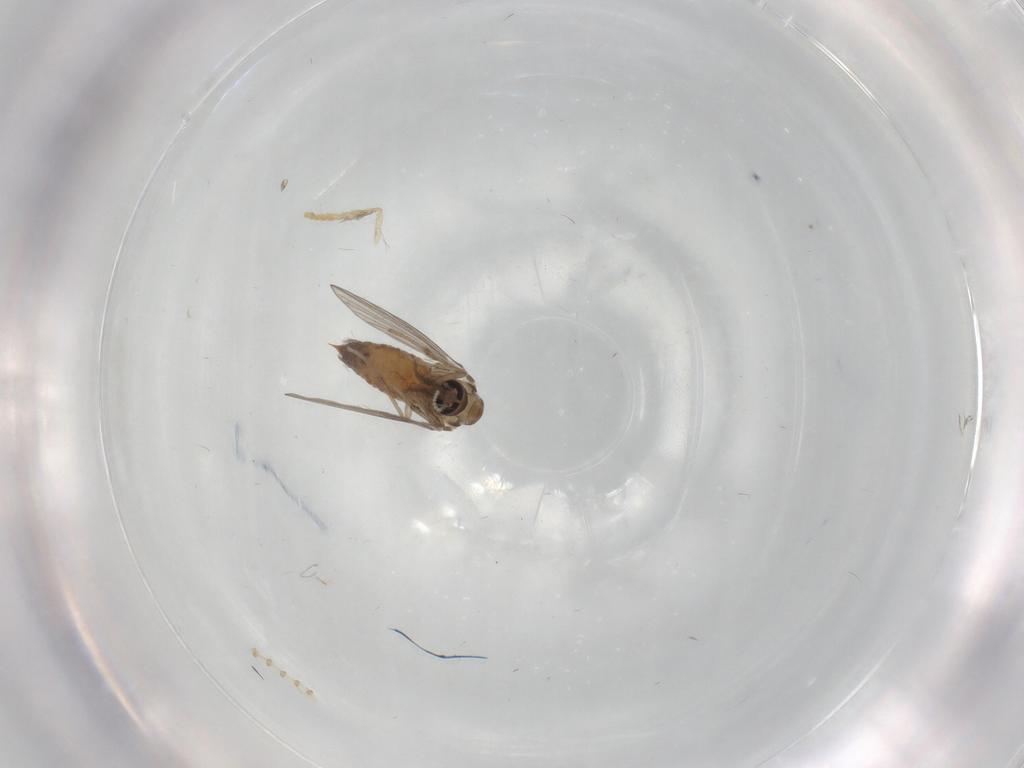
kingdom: Animalia
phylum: Arthropoda
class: Insecta
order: Diptera
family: Psychodidae
